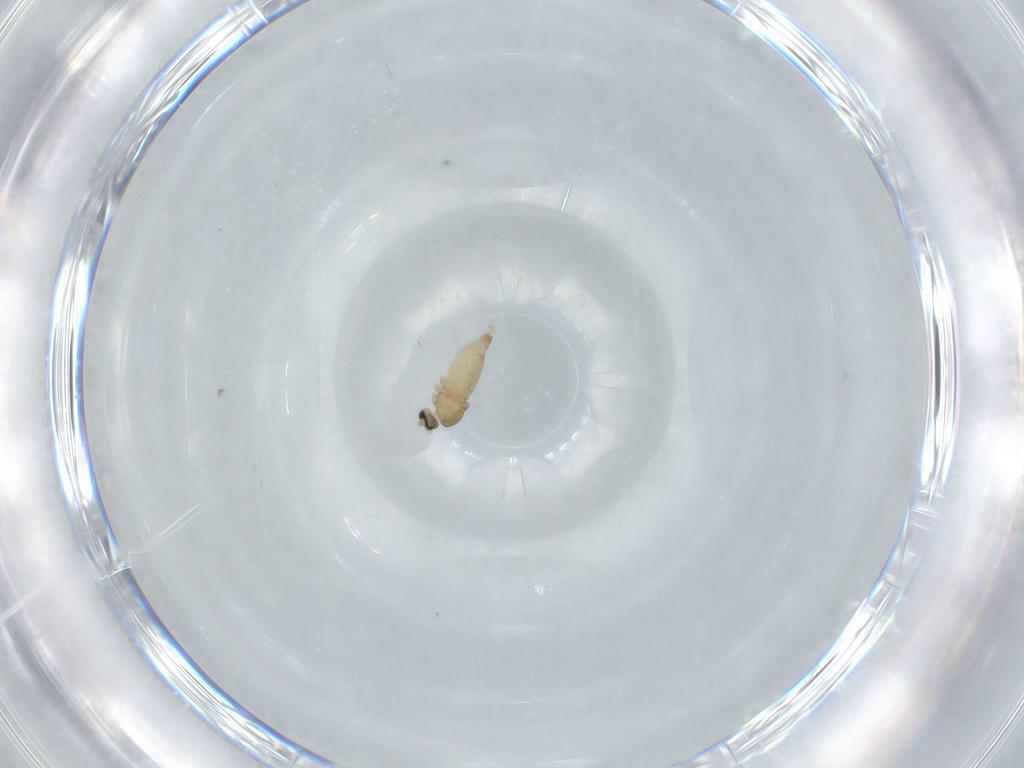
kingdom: Animalia
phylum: Arthropoda
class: Insecta
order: Diptera
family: Cecidomyiidae
